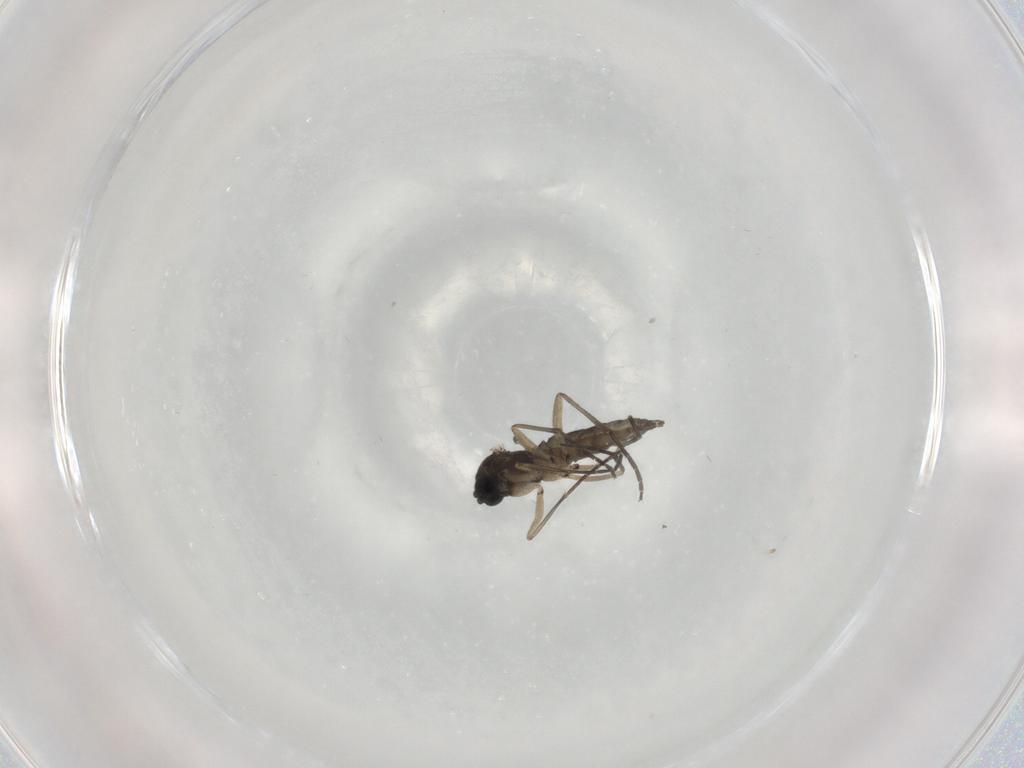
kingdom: Animalia
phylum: Arthropoda
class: Insecta
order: Diptera
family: Sciaridae
